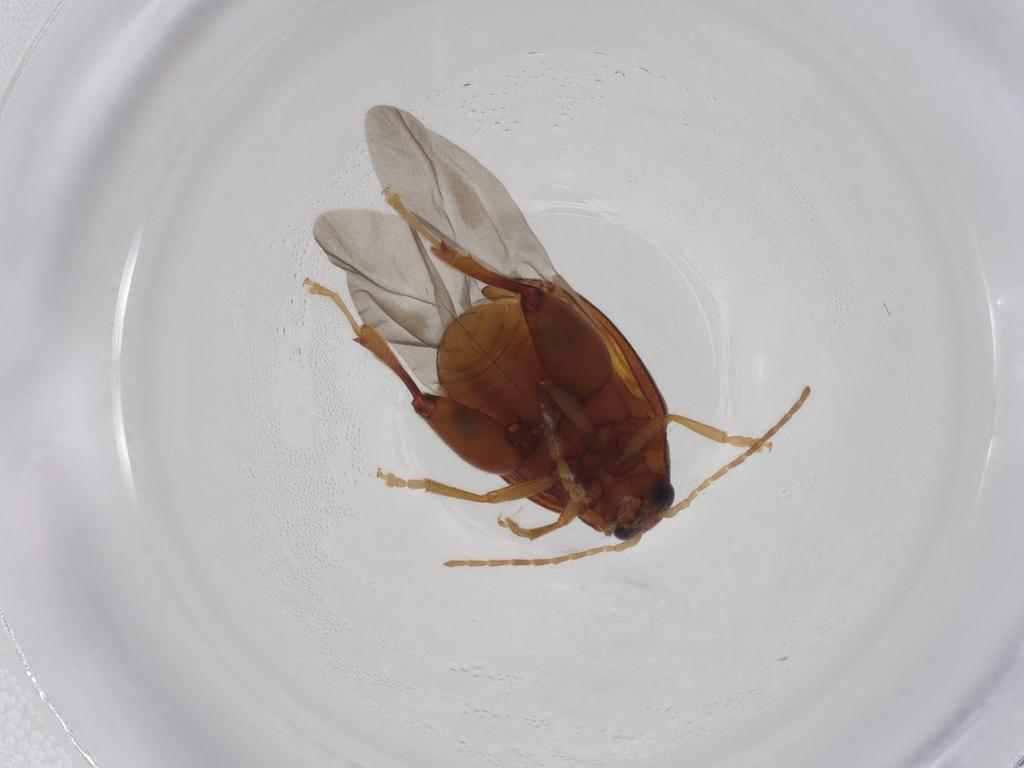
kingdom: Animalia
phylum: Arthropoda
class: Insecta
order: Coleoptera
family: Chrysomelidae
